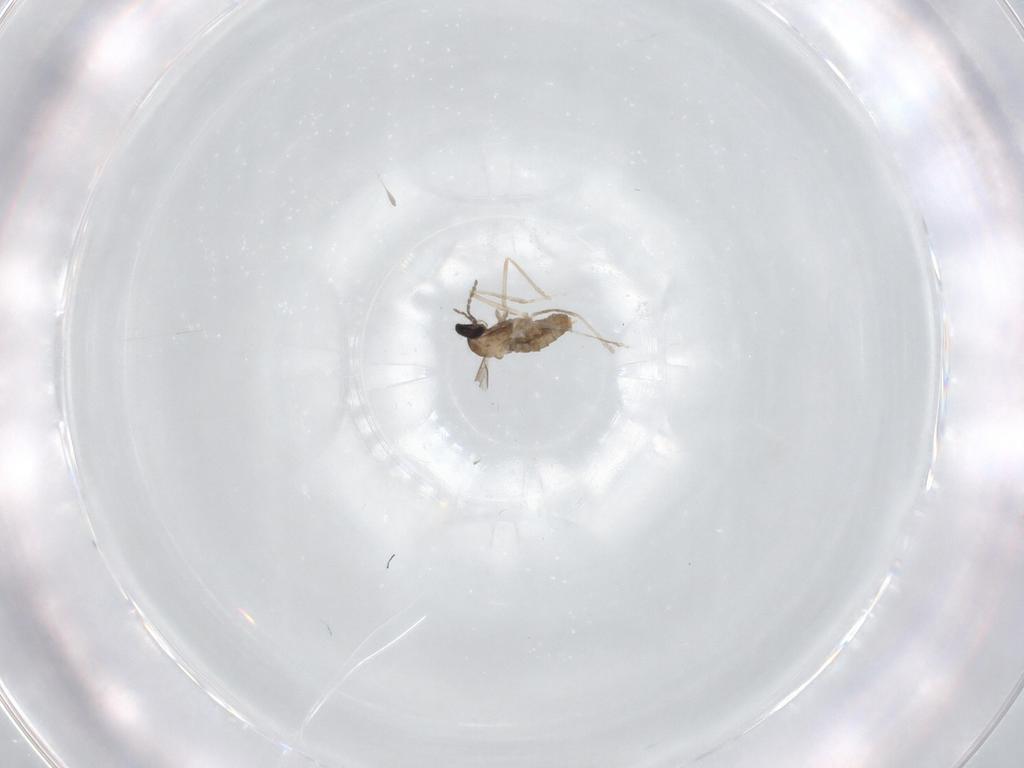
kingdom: Animalia
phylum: Arthropoda
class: Insecta
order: Diptera
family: Cecidomyiidae
